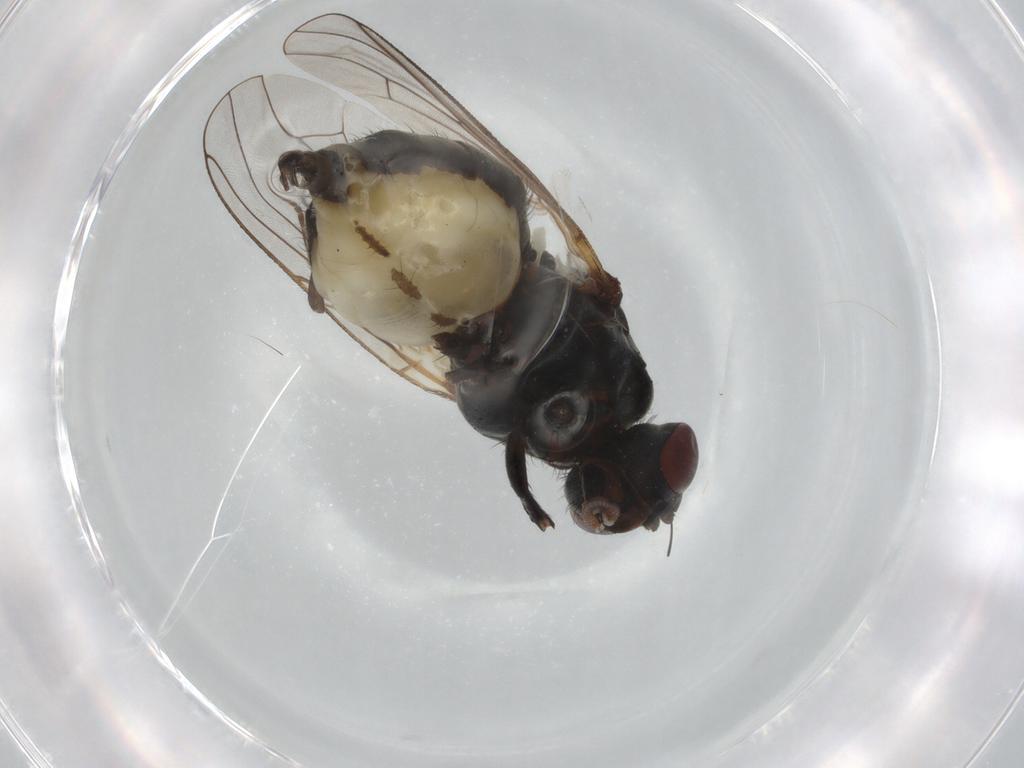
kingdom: Animalia
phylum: Arthropoda
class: Insecta
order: Diptera
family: Anthomyiidae
